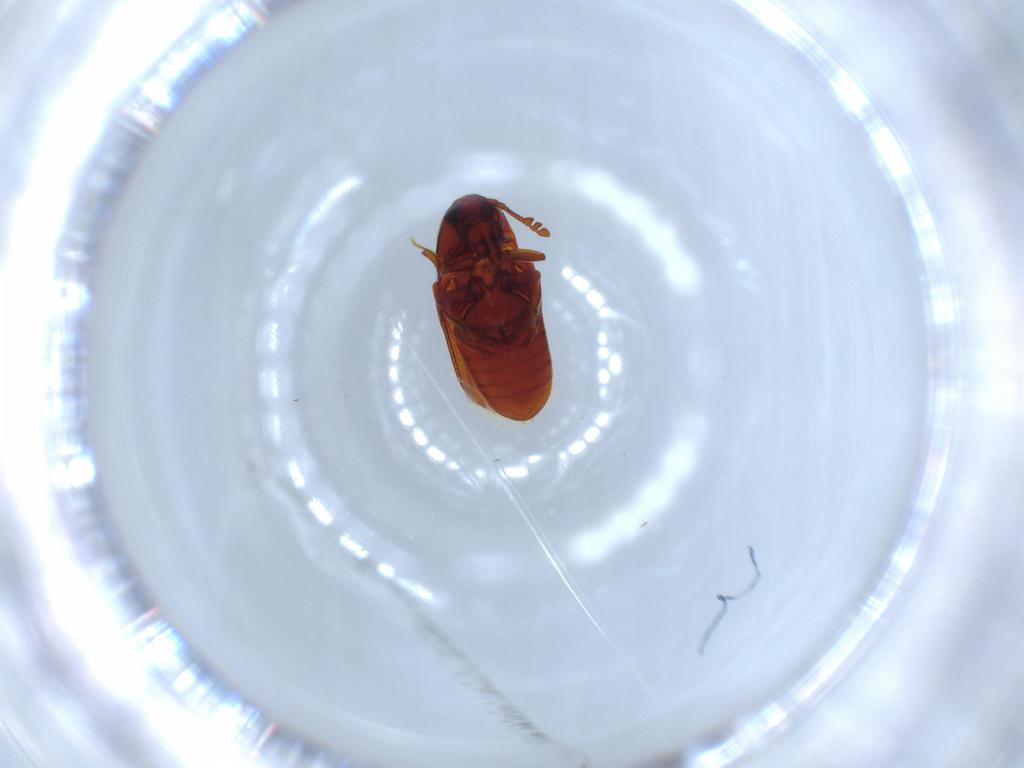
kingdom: Animalia
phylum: Arthropoda
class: Insecta
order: Coleoptera
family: Throscidae
